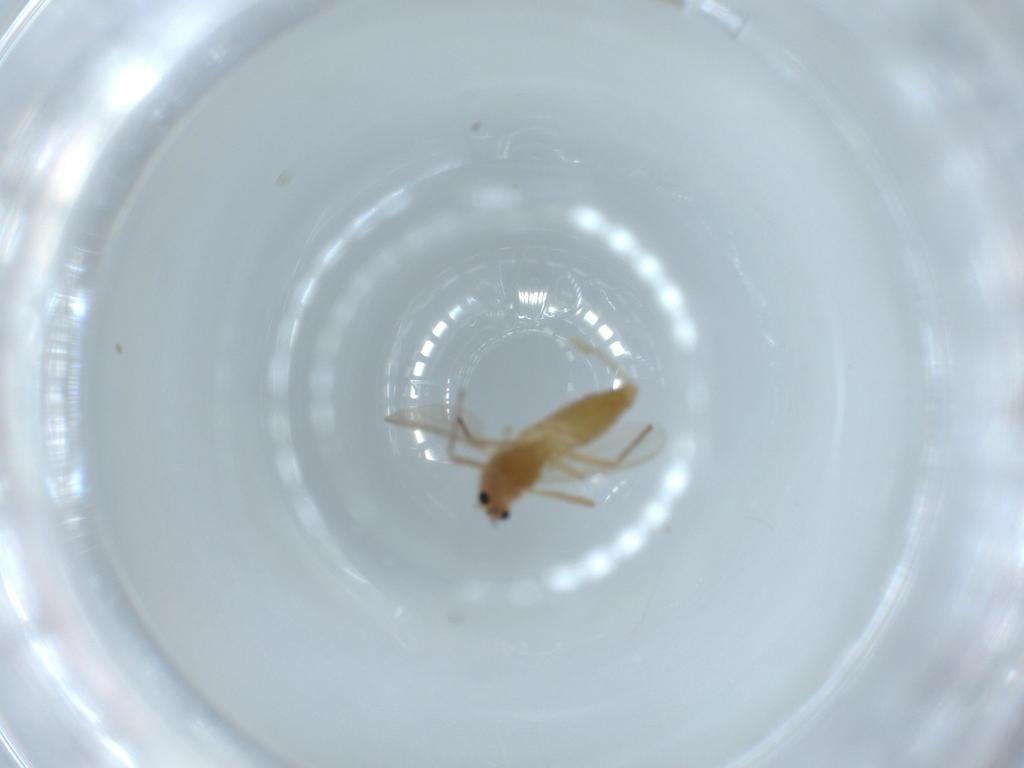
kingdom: Animalia
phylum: Arthropoda
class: Insecta
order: Diptera
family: Chironomidae
